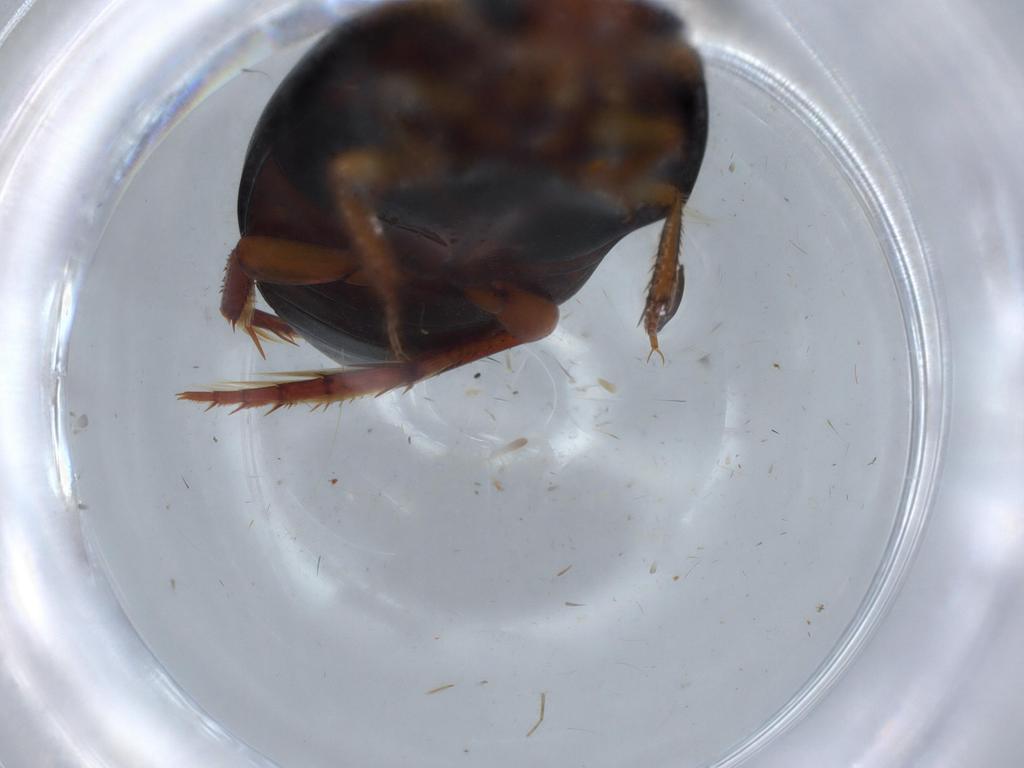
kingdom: Animalia
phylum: Arthropoda
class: Insecta
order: Coleoptera
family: Dytiscidae
